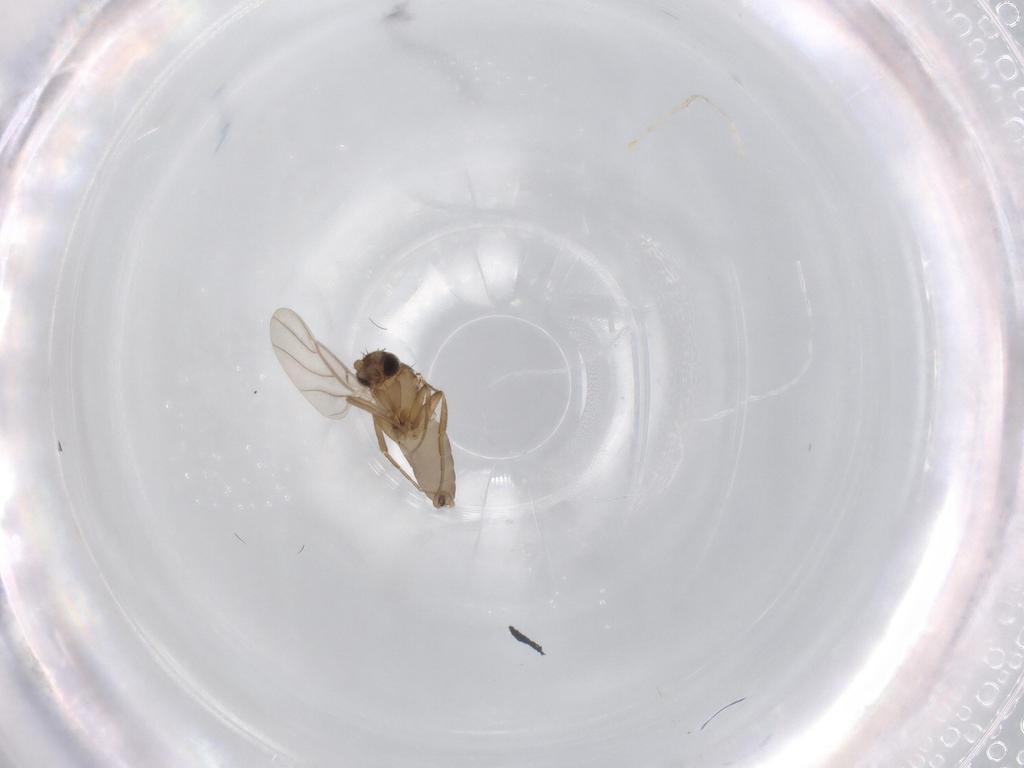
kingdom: Animalia
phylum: Arthropoda
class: Insecta
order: Diptera
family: Phoridae
